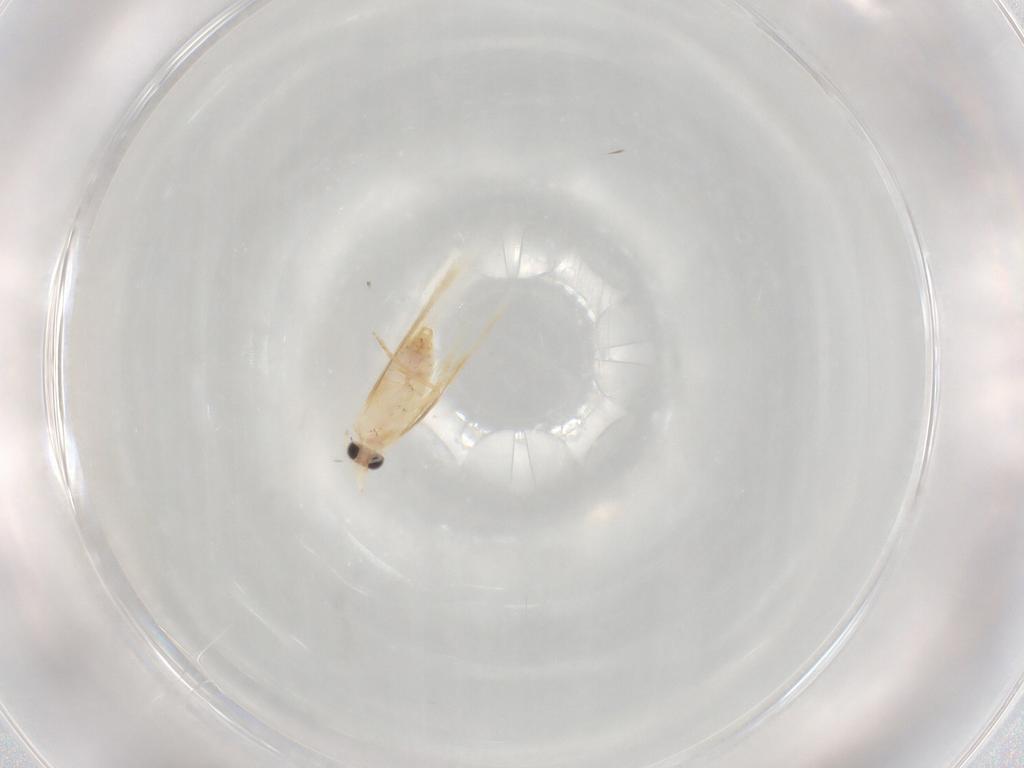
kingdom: Animalia
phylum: Arthropoda
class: Insecta
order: Lepidoptera
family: Nepticulidae
